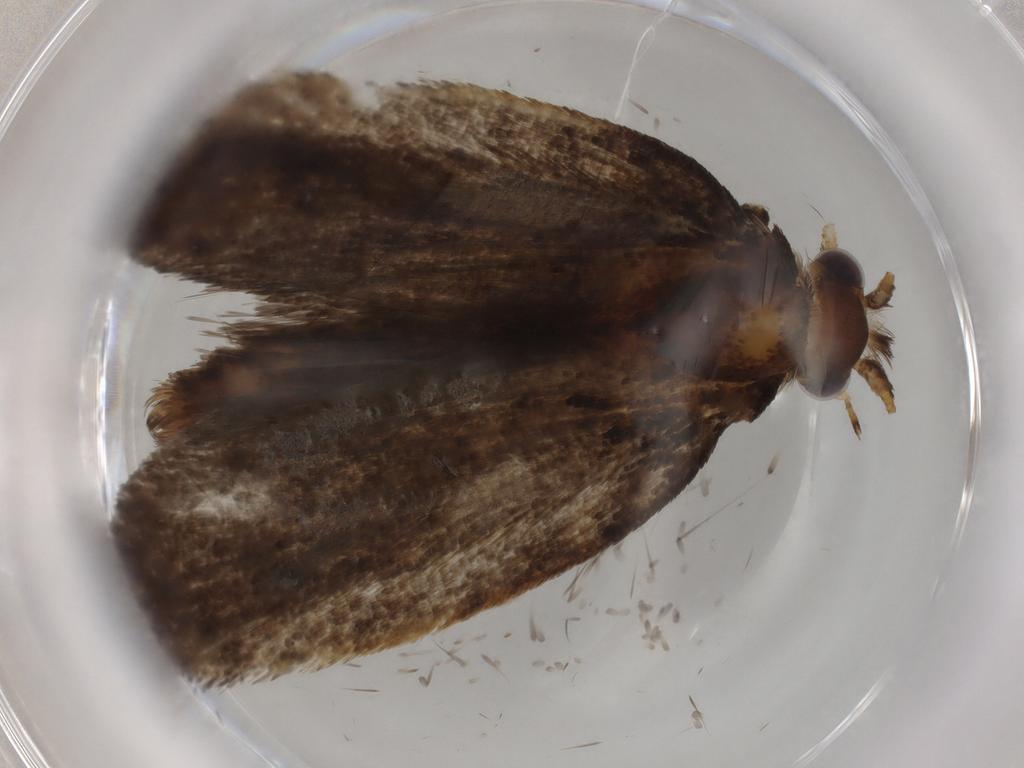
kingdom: Animalia
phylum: Arthropoda
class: Insecta
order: Lepidoptera
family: Tineidae
